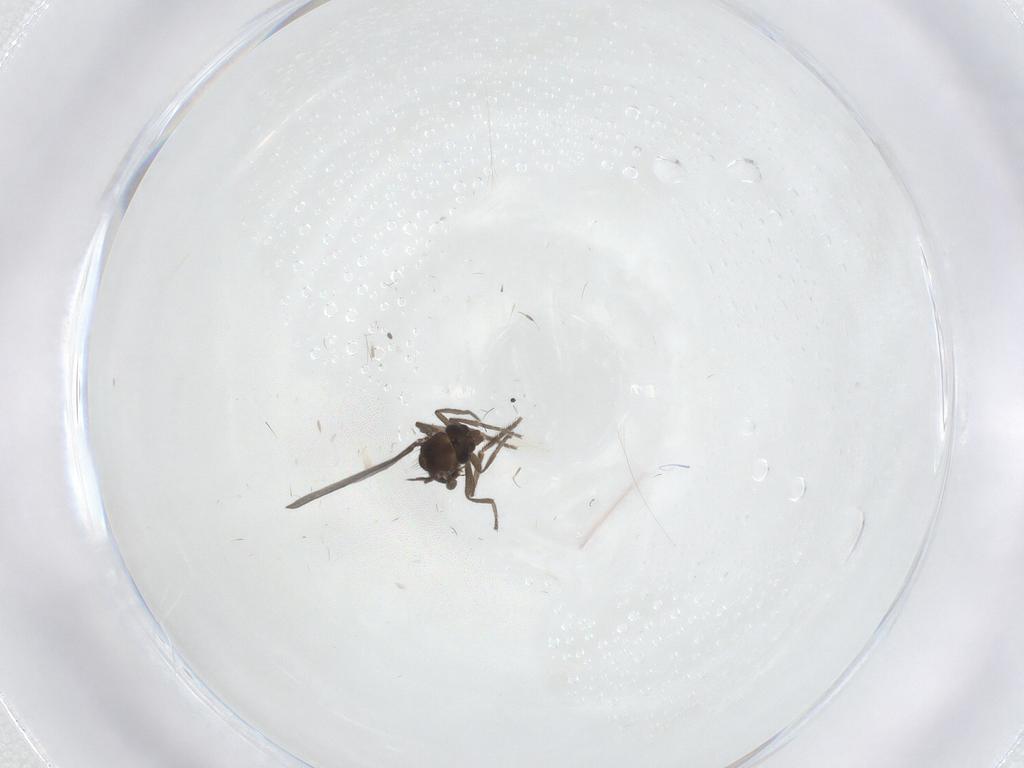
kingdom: Animalia
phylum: Arthropoda
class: Insecta
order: Diptera
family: Phoridae
